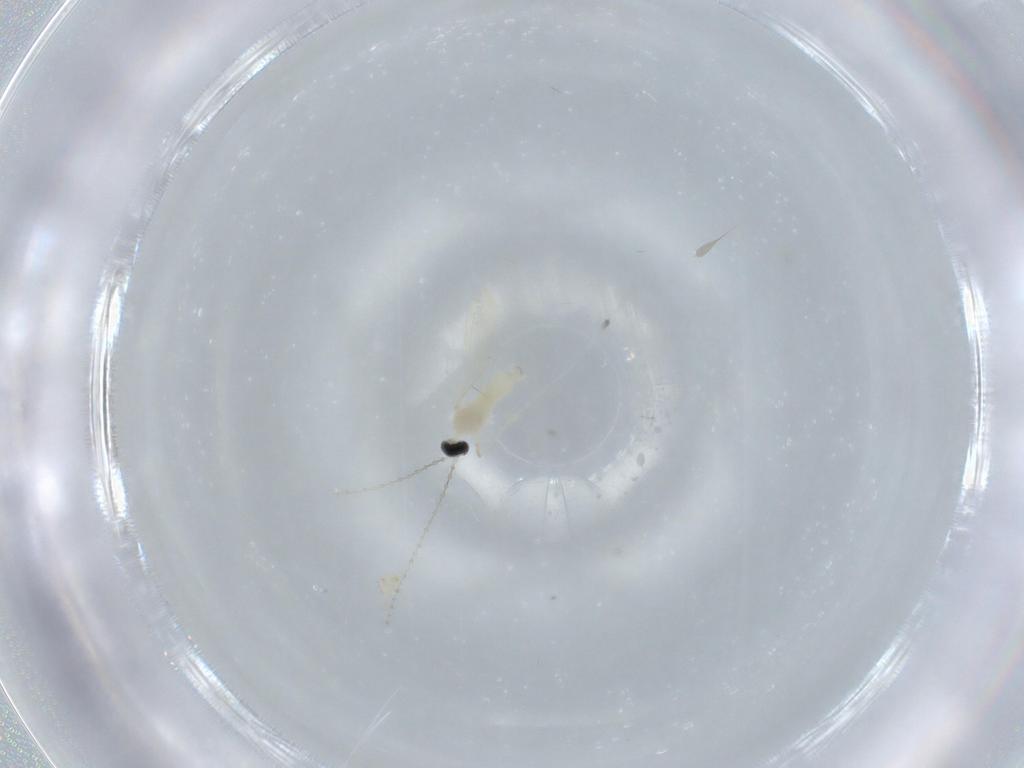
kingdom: Animalia
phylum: Arthropoda
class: Insecta
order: Diptera
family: Cecidomyiidae
